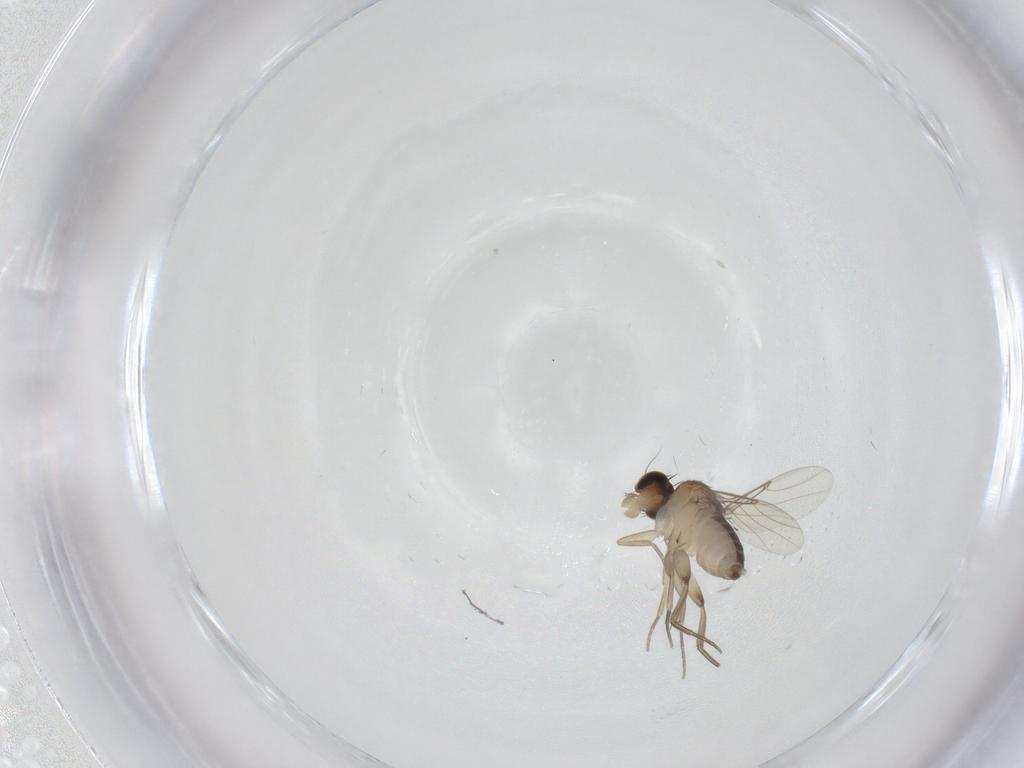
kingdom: Animalia
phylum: Arthropoda
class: Insecta
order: Diptera
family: Phoridae
